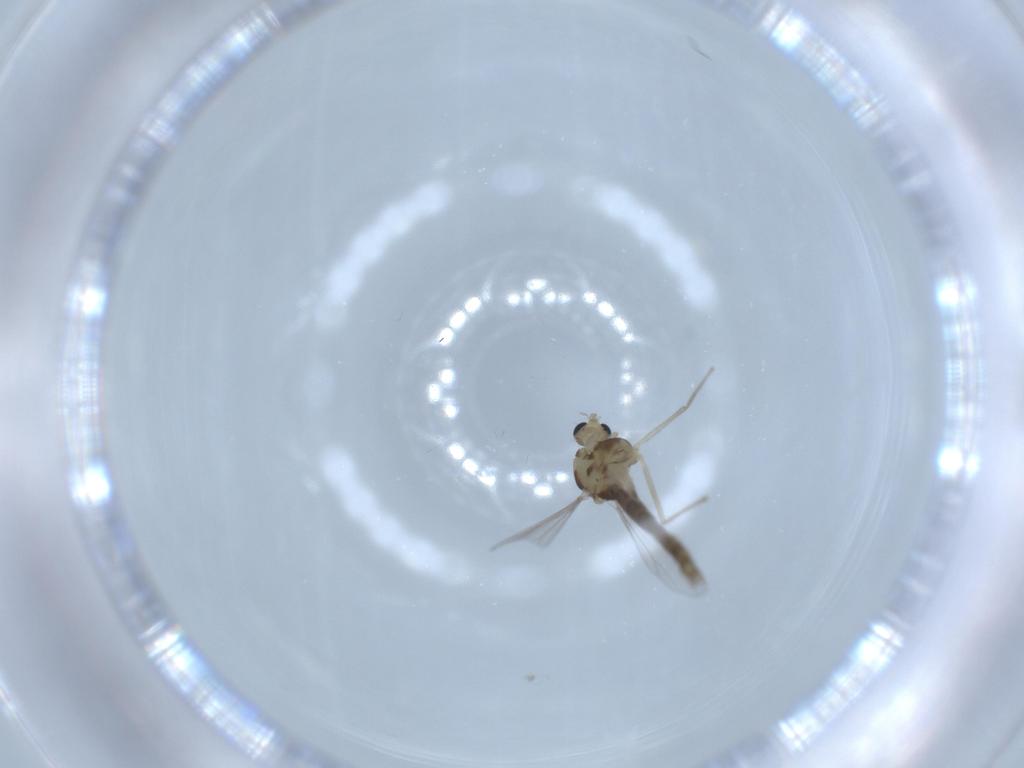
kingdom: Animalia
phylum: Arthropoda
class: Insecta
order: Diptera
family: Chironomidae
